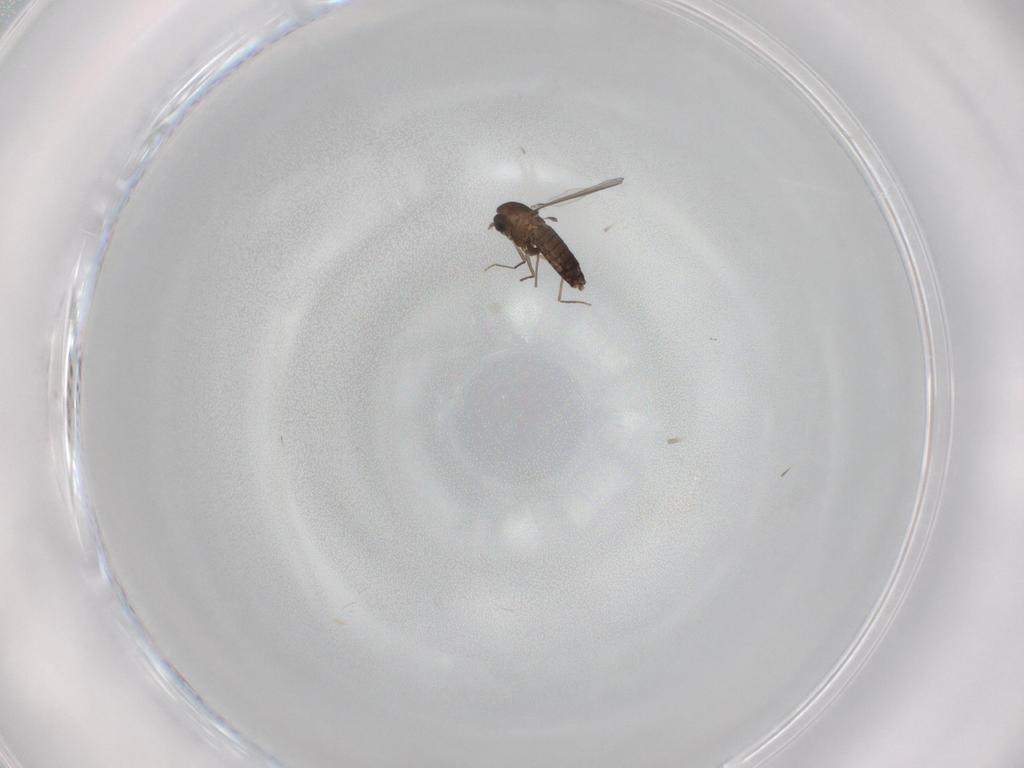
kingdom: Animalia
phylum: Arthropoda
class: Insecta
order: Diptera
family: Chironomidae
